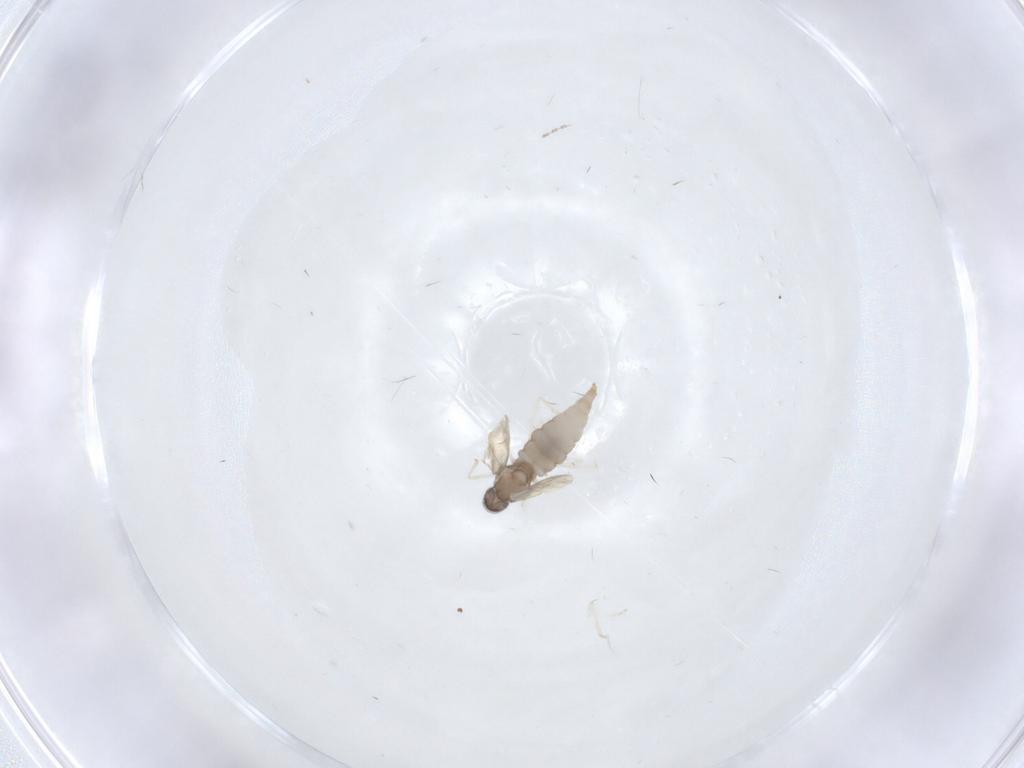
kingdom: Animalia
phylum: Arthropoda
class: Insecta
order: Diptera
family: Cecidomyiidae
